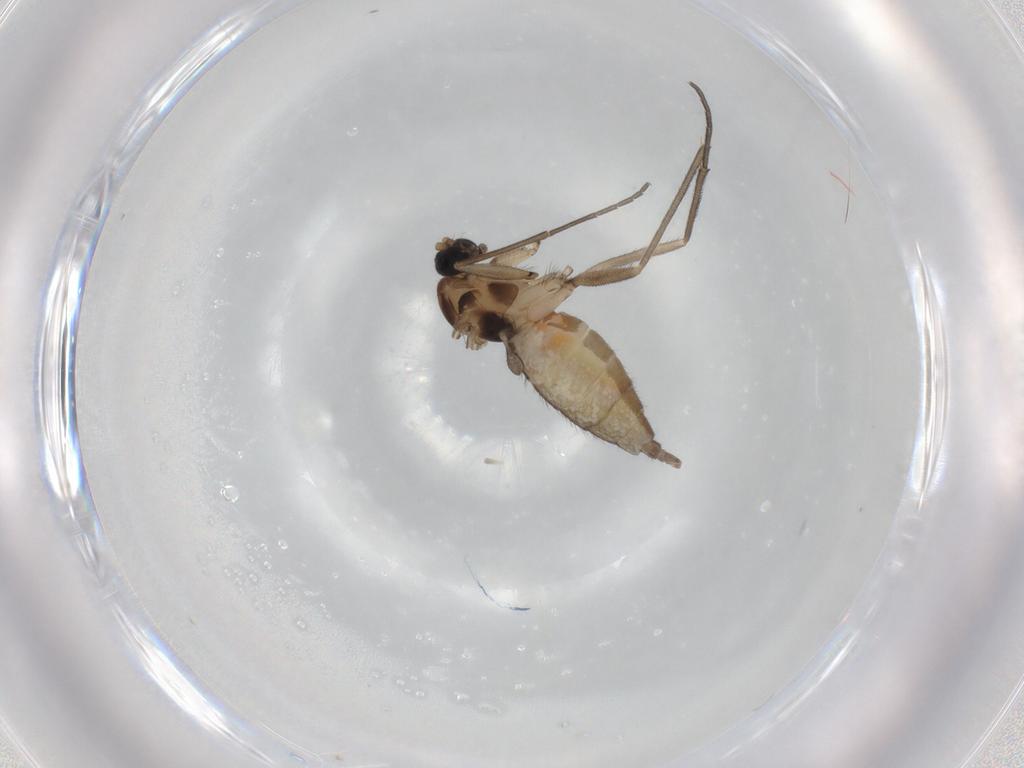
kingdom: Animalia
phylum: Arthropoda
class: Insecta
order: Diptera
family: Sciaridae
